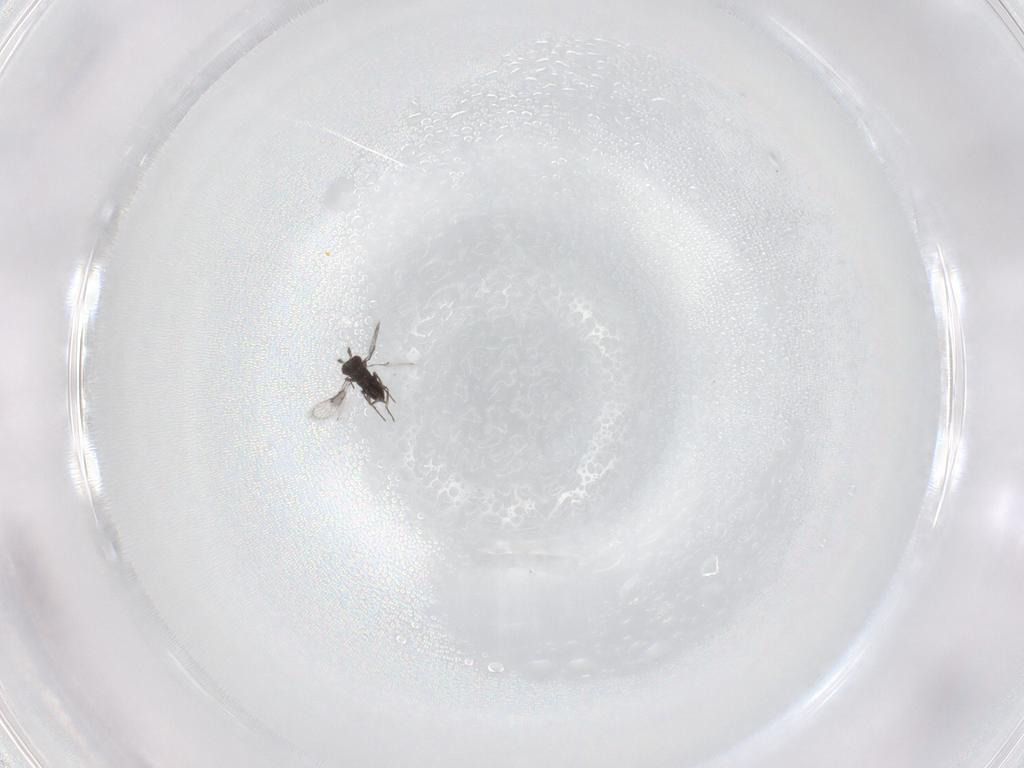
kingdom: Animalia
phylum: Arthropoda
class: Insecta
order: Hymenoptera
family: Trichogrammatidae
